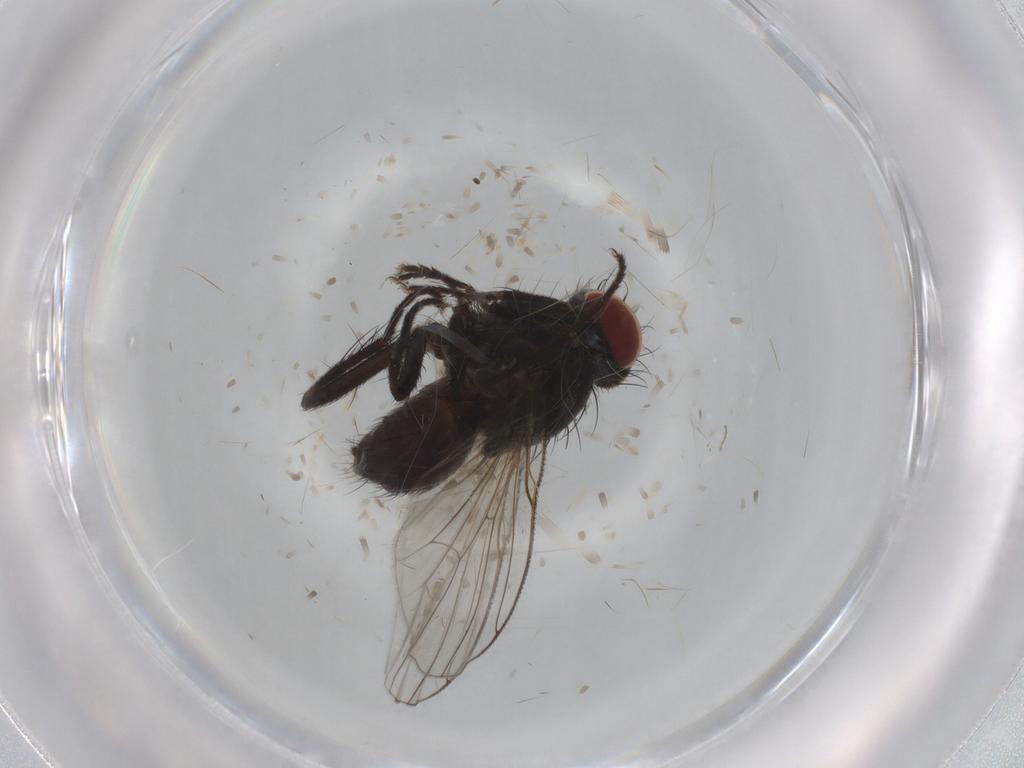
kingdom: Animalia
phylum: Arthropoda
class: Insecta
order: Diptera
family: Muscidae
